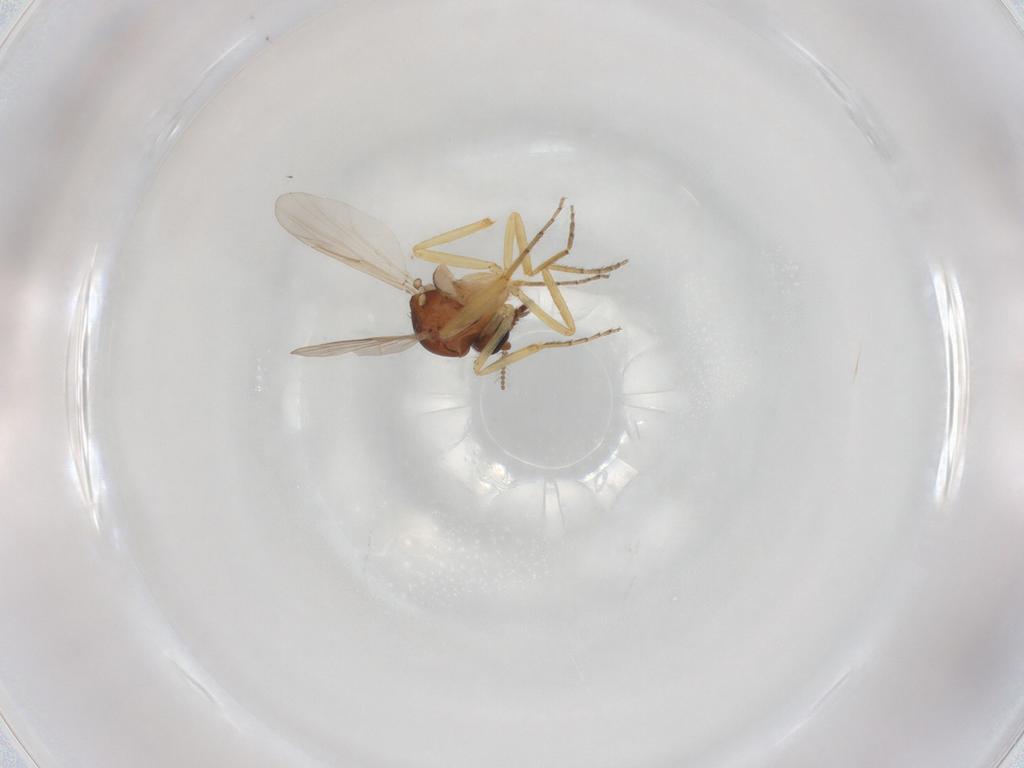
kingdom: Animalia
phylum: Arthropoda
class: Insecta
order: Diptera
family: Ceratopogonidae
